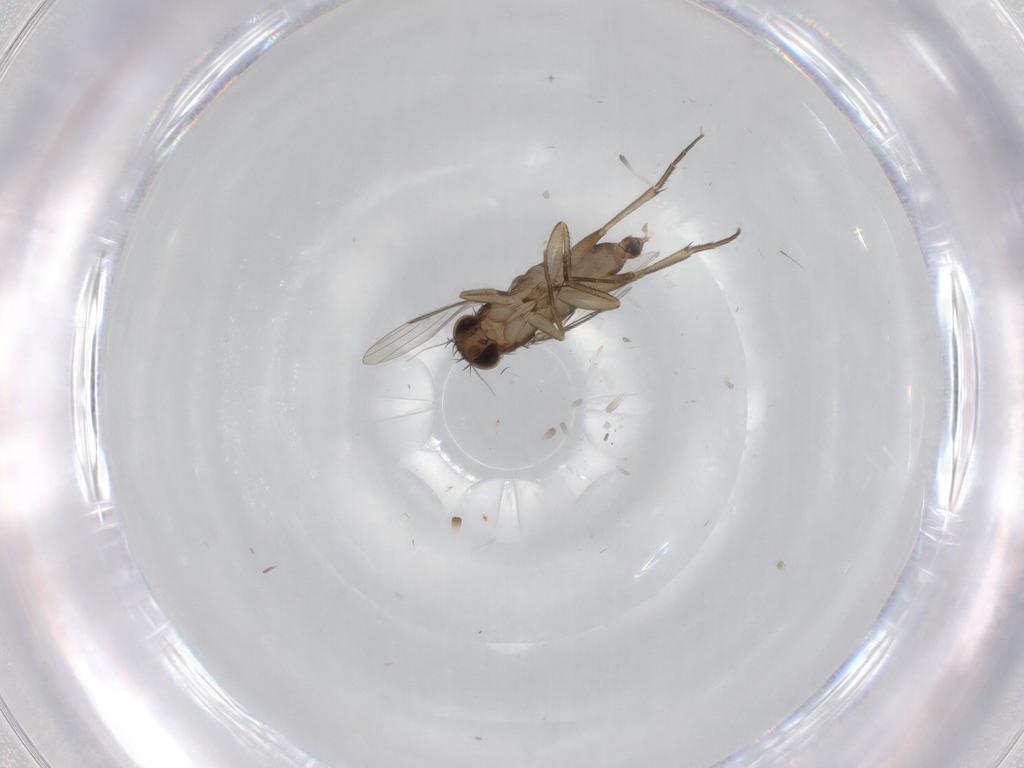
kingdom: Animalia
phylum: Arthropoda
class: Insecta
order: Diptera
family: Phoridae
